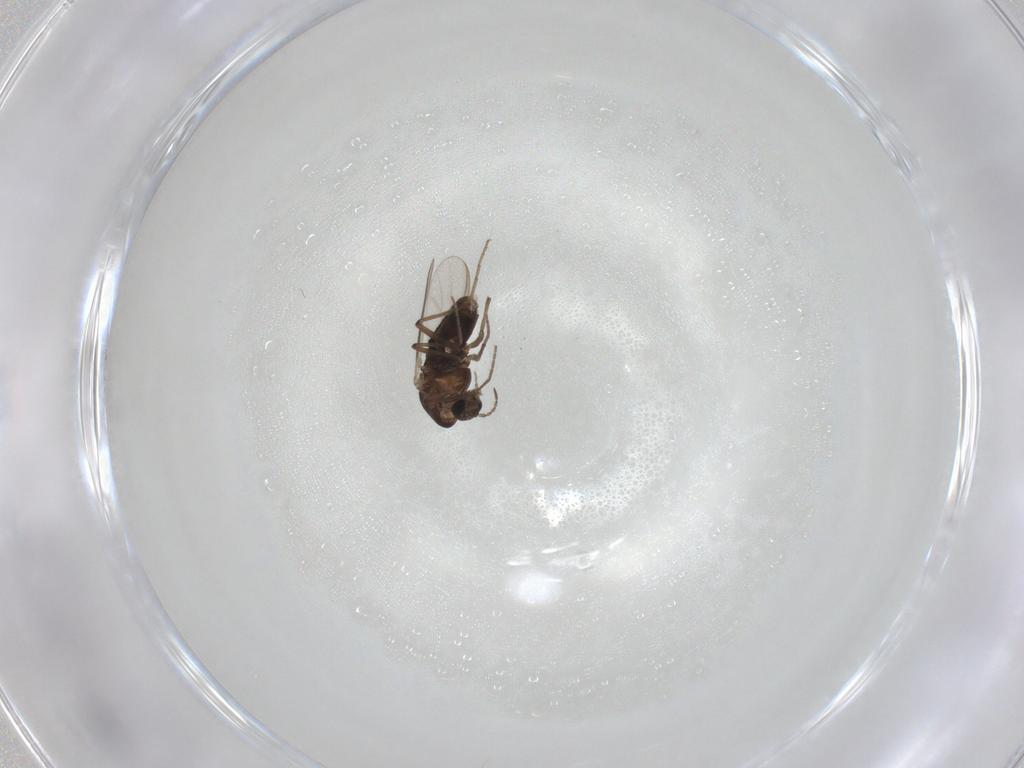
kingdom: Animalia
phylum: Arthropoda
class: Insecta
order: Diptera
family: Chironomidae
